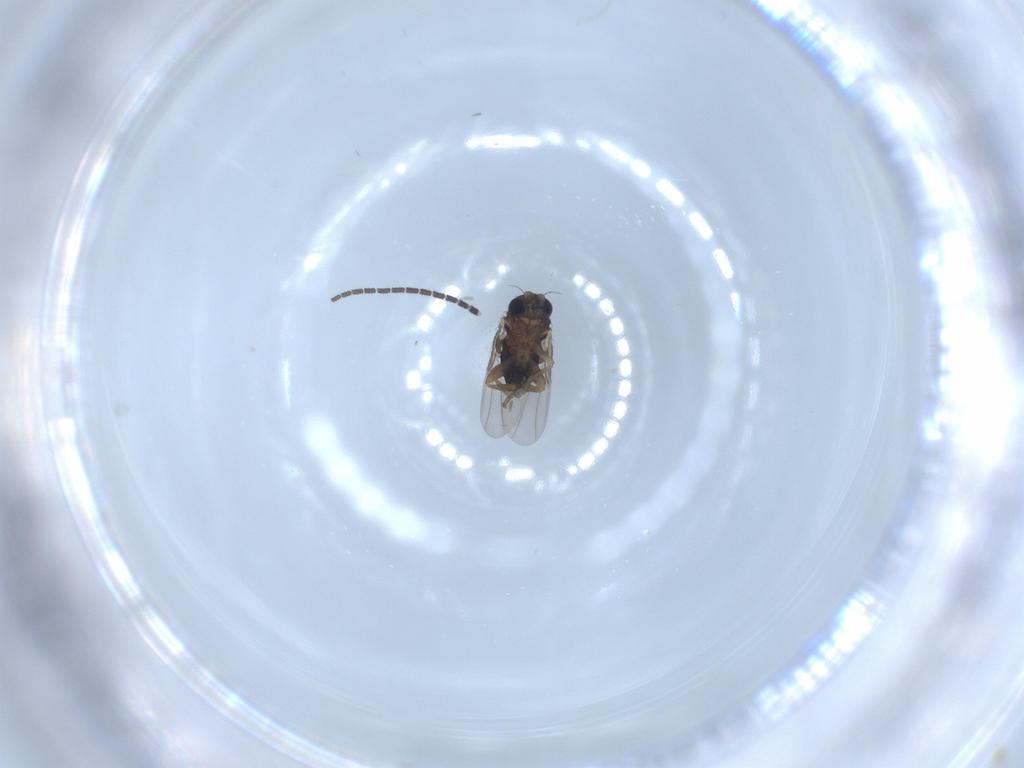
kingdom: Animalia
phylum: Arthropoda
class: Insecta
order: Diptera
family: Sciaridae
